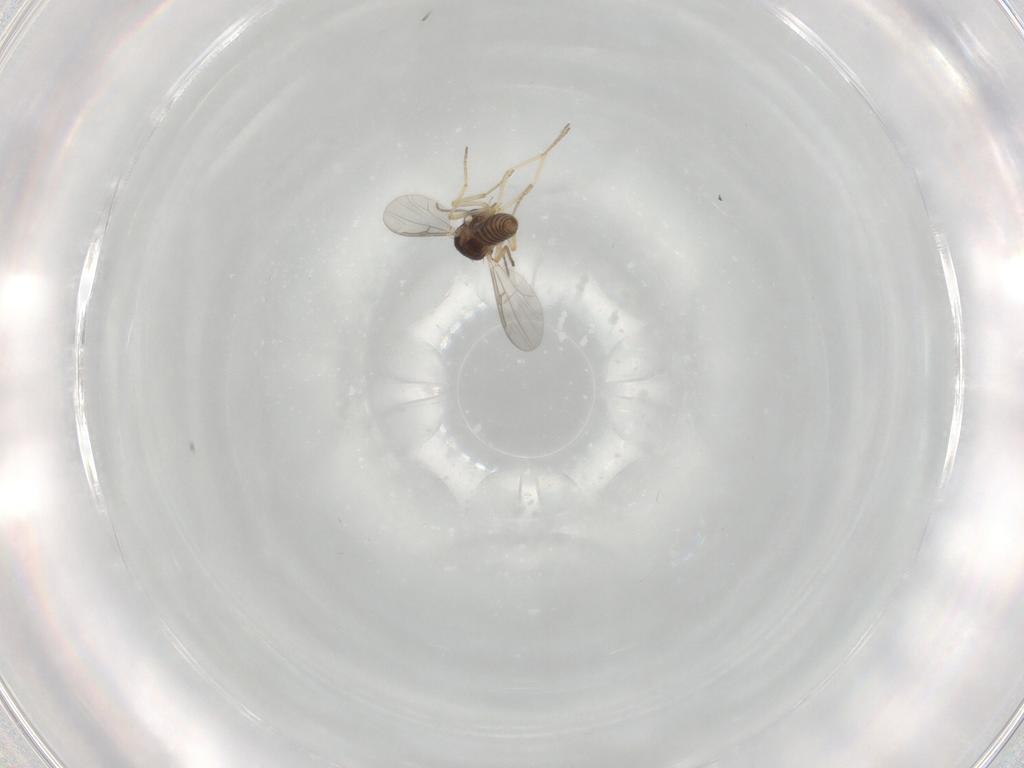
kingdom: Animalia
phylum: Arthropoda
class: Insecta
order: Diptera
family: Ceratopogonidae
